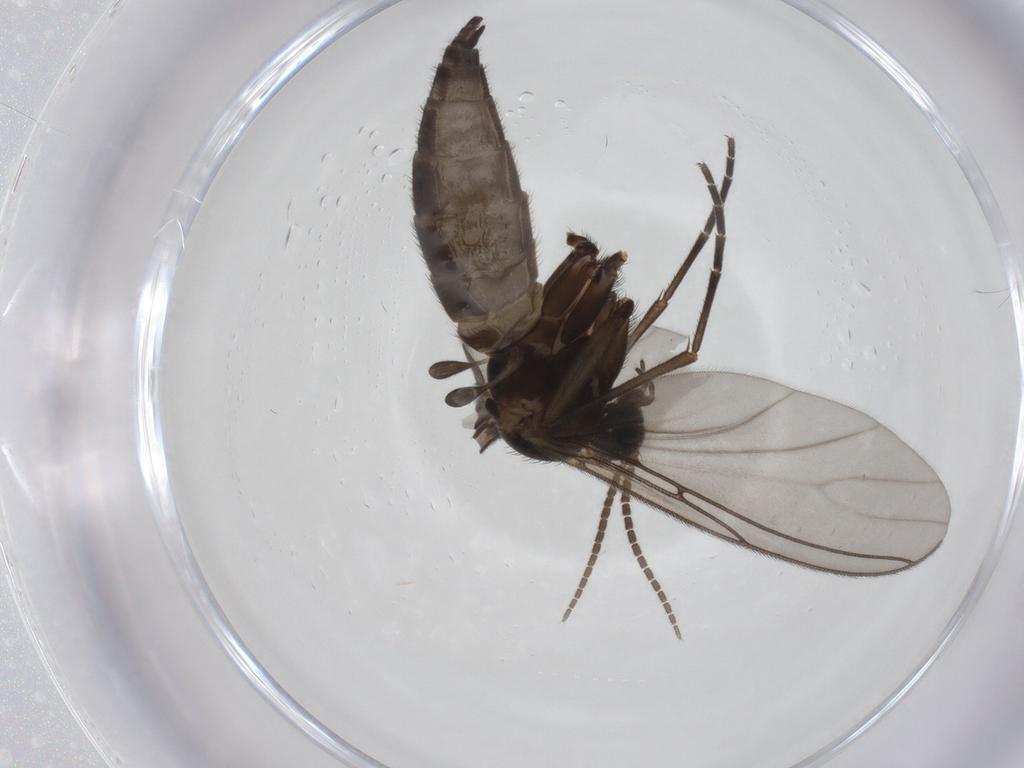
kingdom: Animalia
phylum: Arthropoda
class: Insecta
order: Diptera
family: Sciaridae
